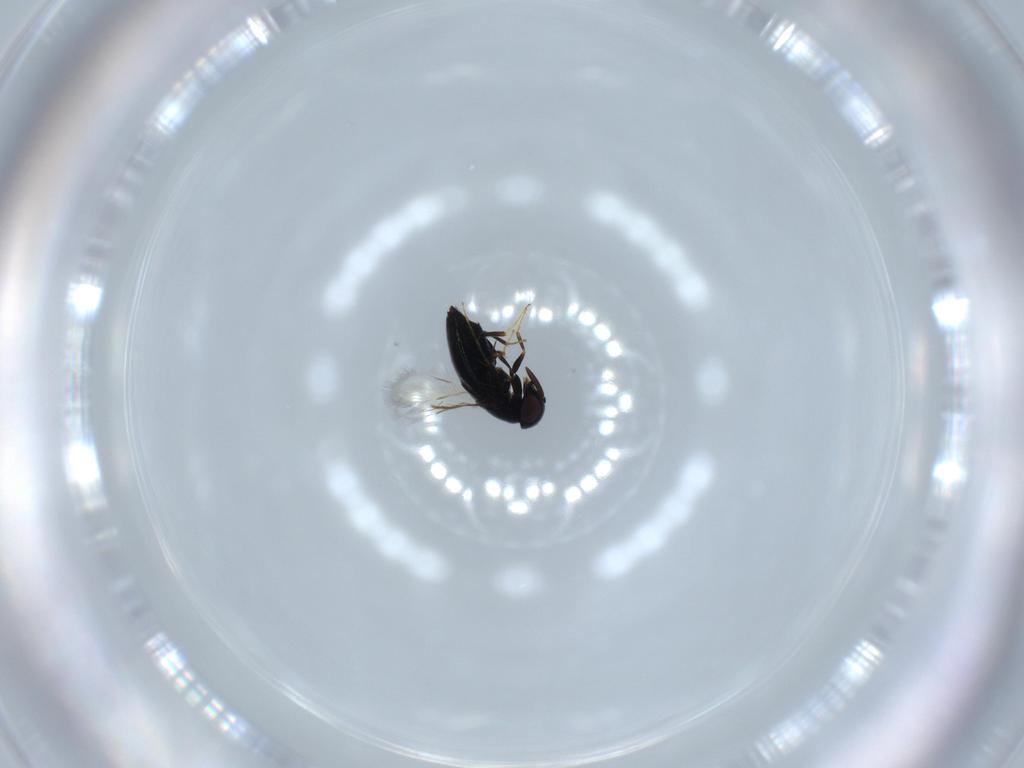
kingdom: Animalia
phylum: Arthropoda
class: Insecta
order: Hymenoptera
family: Signiphoridae
